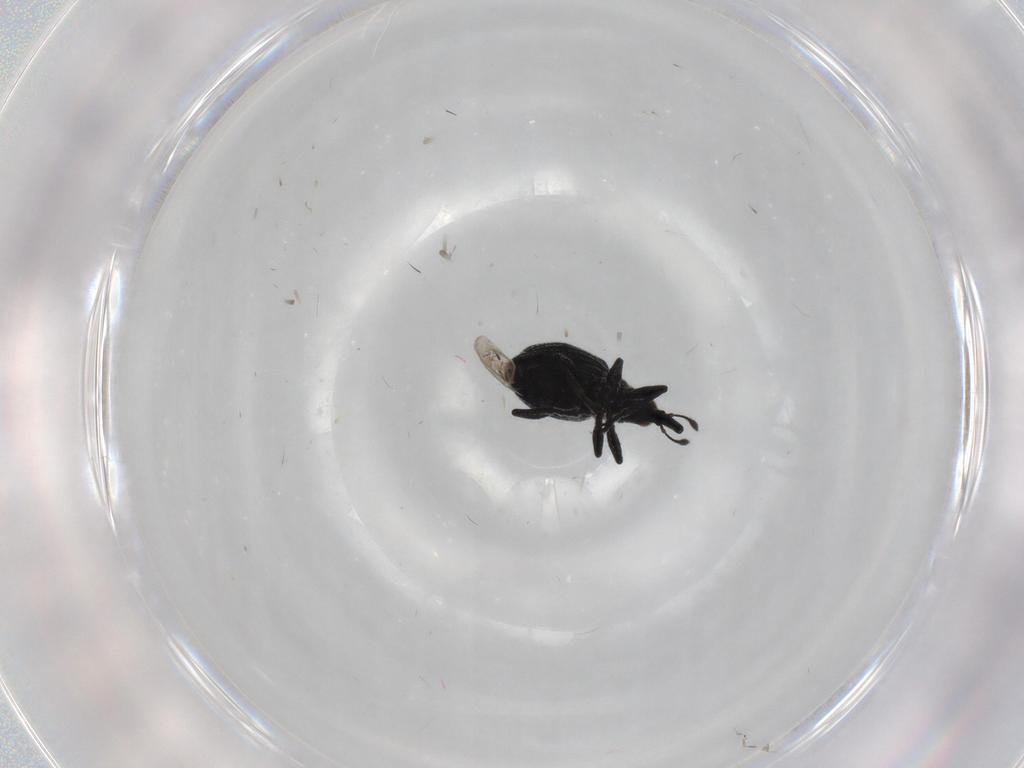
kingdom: Animalia
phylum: Arthropoda
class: Insecta
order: Coleoptera
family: Brentidae
